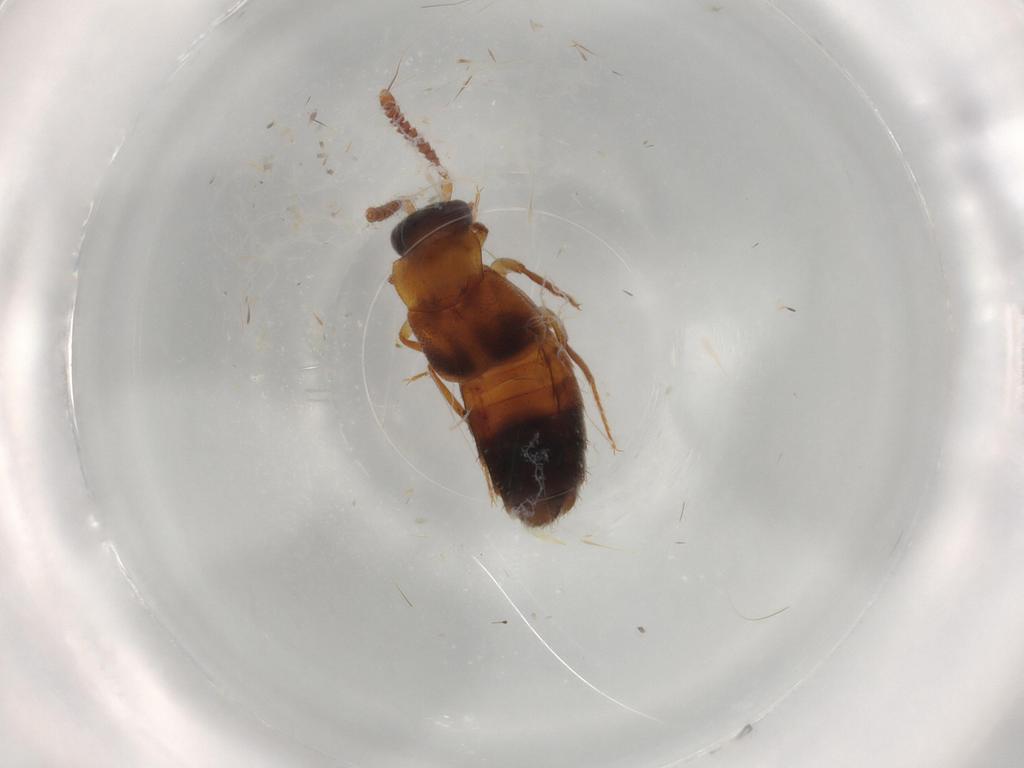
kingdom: Animalia
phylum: Arthropoda
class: Insecta
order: Coleoptera
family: Staphylinidae
